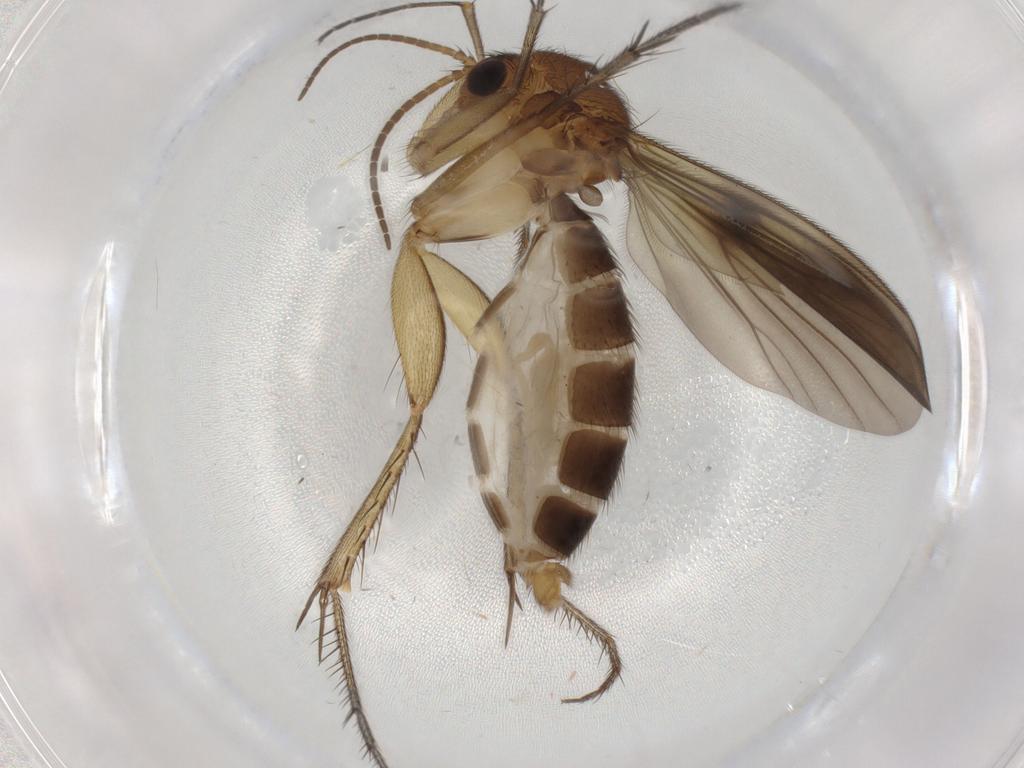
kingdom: Animalia
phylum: Arthropoda
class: Insecta
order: Diptera
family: Mycetophilidae
